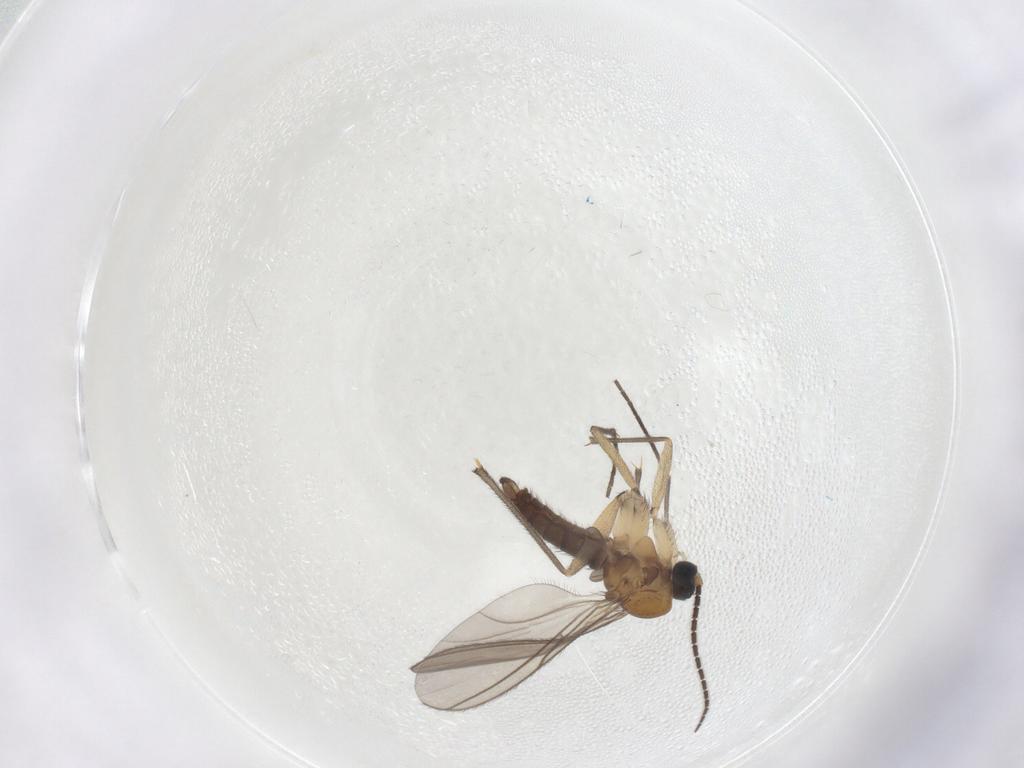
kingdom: Animalia
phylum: Arthropoda
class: Insecta
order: Diptera
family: Sciaridae
